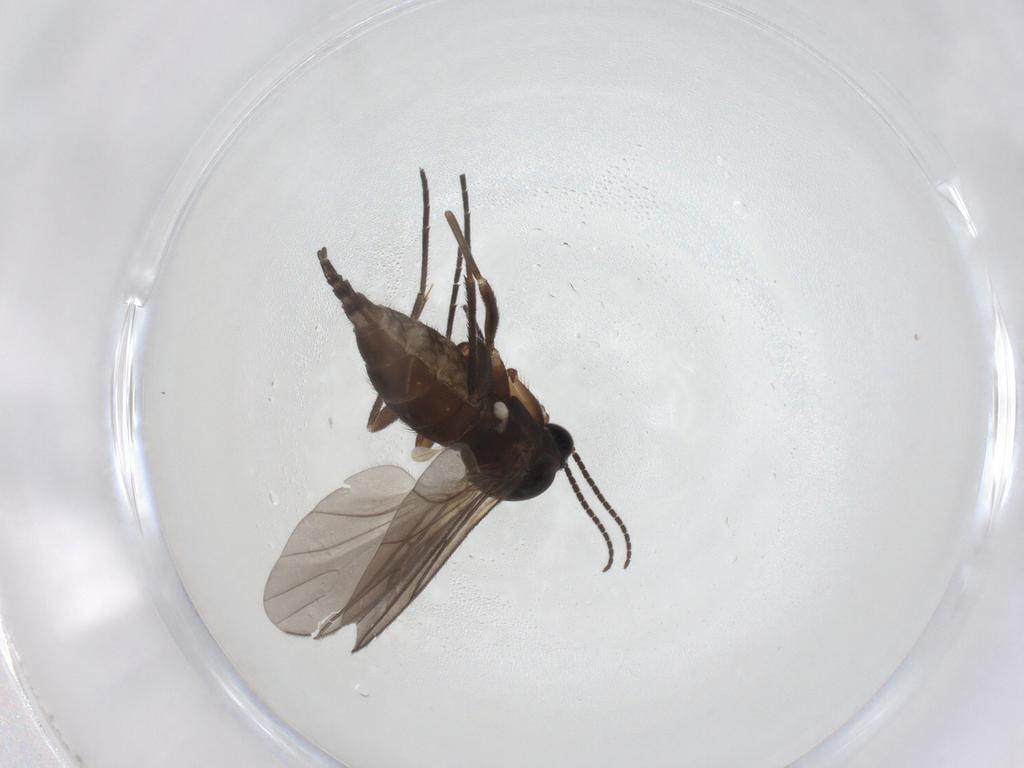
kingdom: Animalia
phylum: Arthropoda
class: Insecta
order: Diptera
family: Sciaridae
